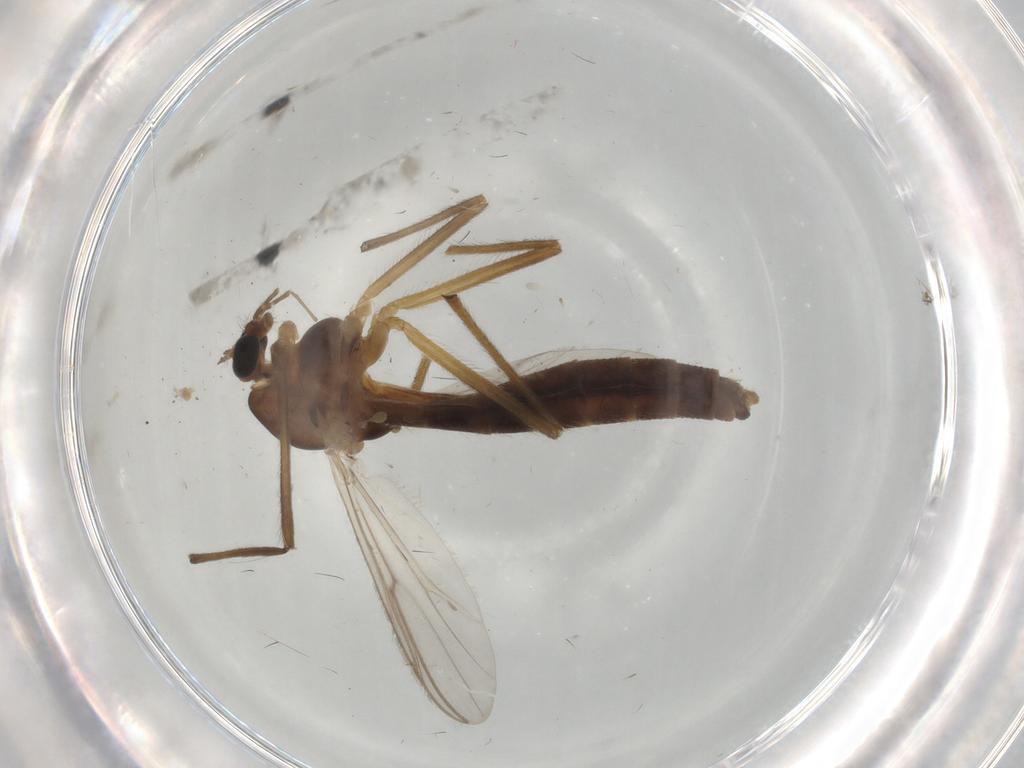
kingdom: Animalia
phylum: Arthropoda
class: Insecta
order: Diptera
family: Chironomidae
